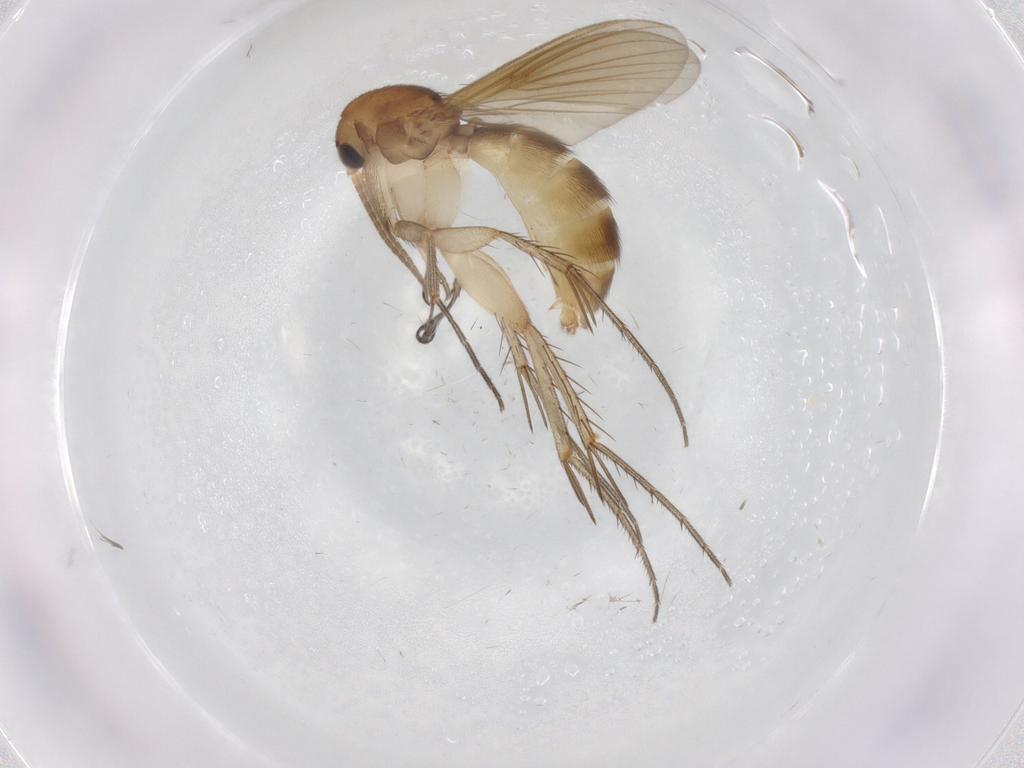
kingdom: Animalia
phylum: Arthropoda
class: Insecta
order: Diptera
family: Mycetophilidae
